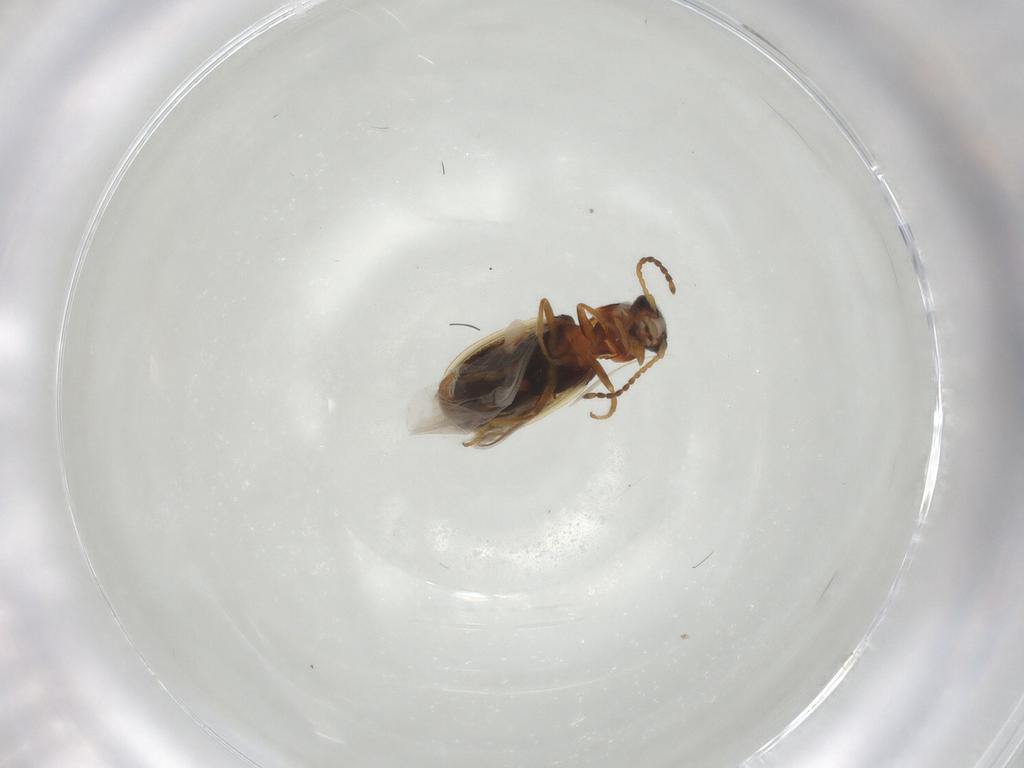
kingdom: Animalia
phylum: Arthropoda
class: Insecta
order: Coleoptera
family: Melyridae
